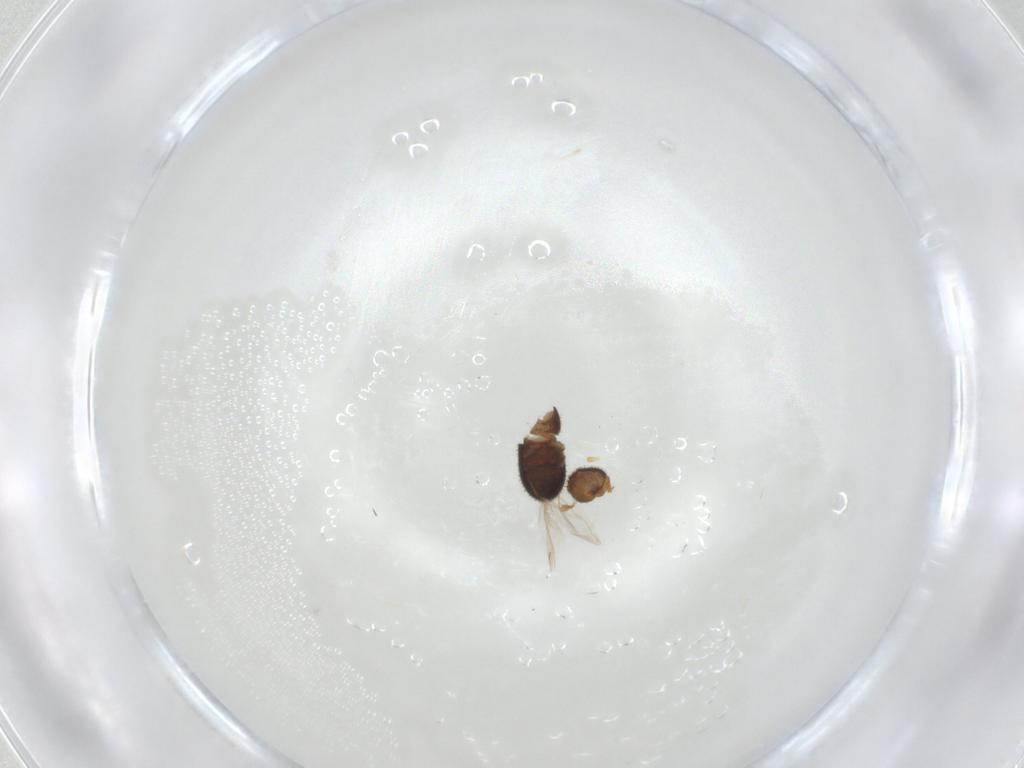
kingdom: Animalia
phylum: Arthropoda
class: Insecta
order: Coleoptera
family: Curculionidae
